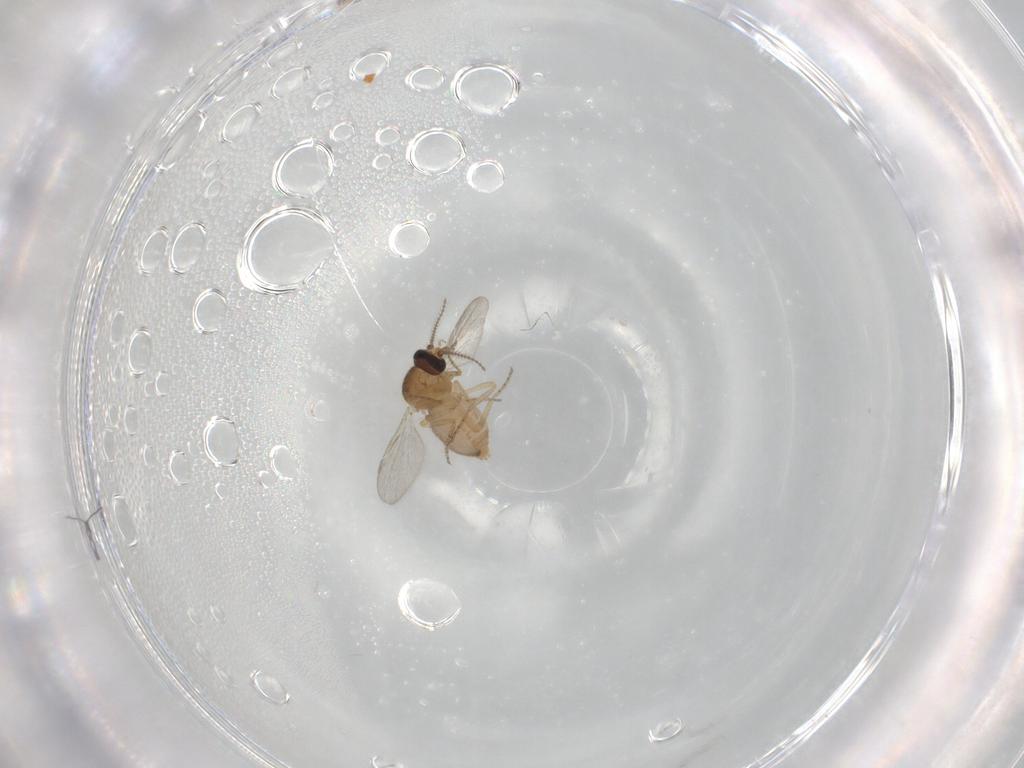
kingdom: Animalia
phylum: Arthropoda
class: Insecta
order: Diptera
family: Ceratopogonidae
